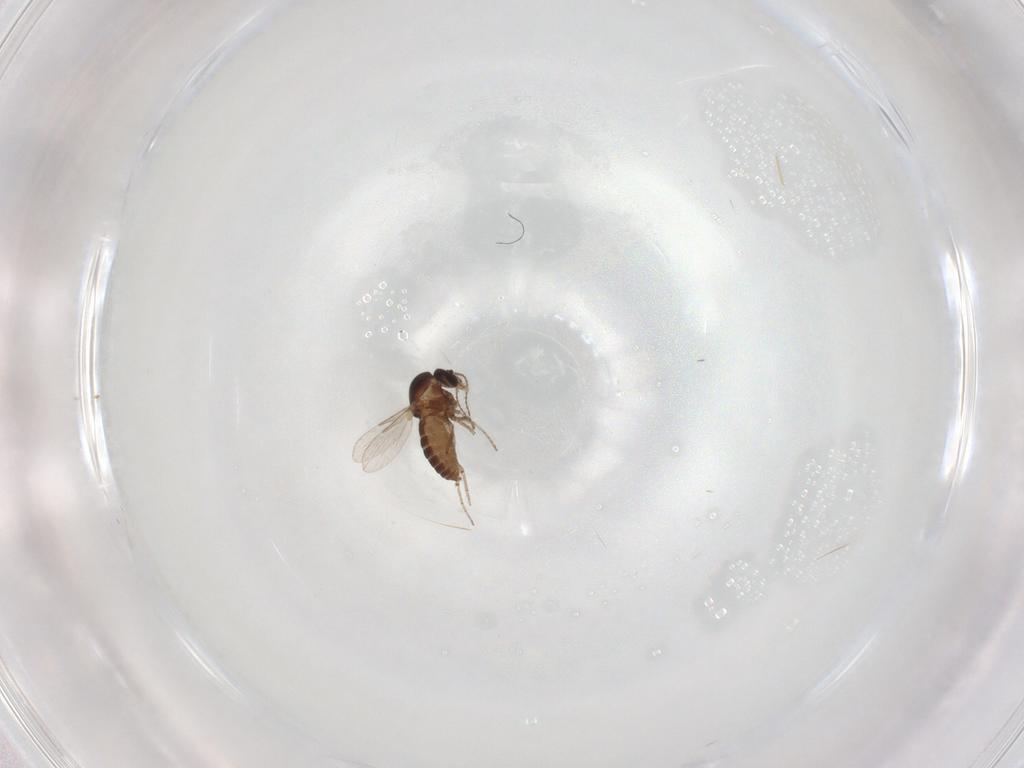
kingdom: Animalia
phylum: Arthropoda
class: Insecta
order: Diptera
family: Ceratopogonidae
